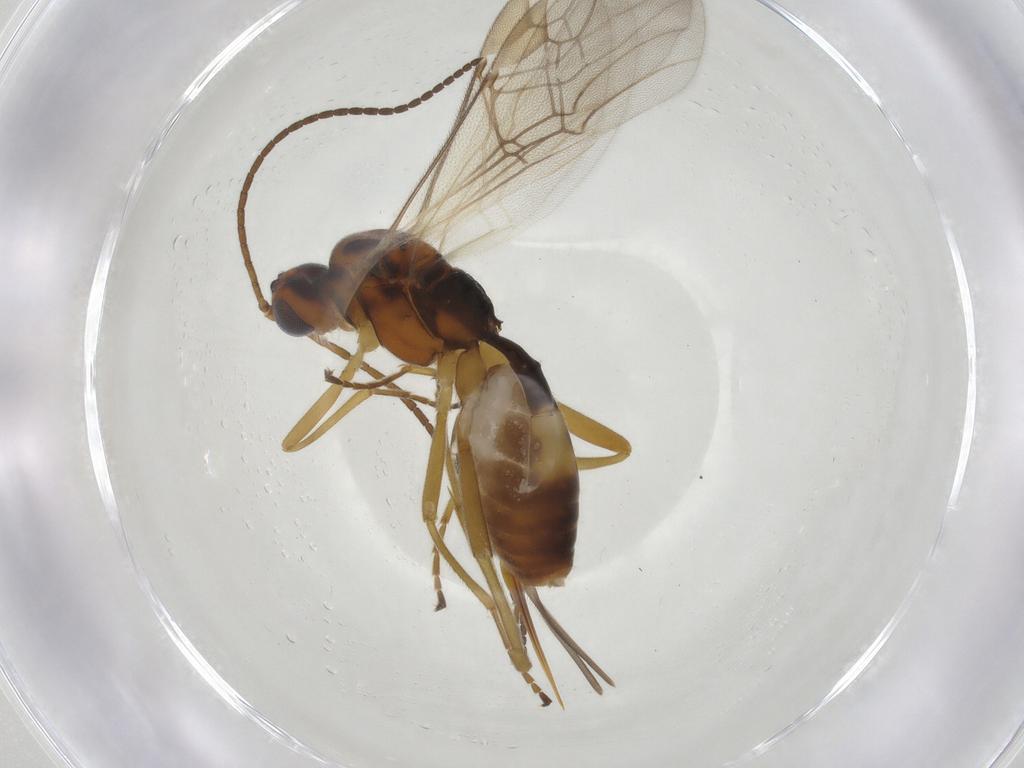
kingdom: Animalia
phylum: Arthropoda
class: Insecta
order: Hymenoptera
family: Braconidae
